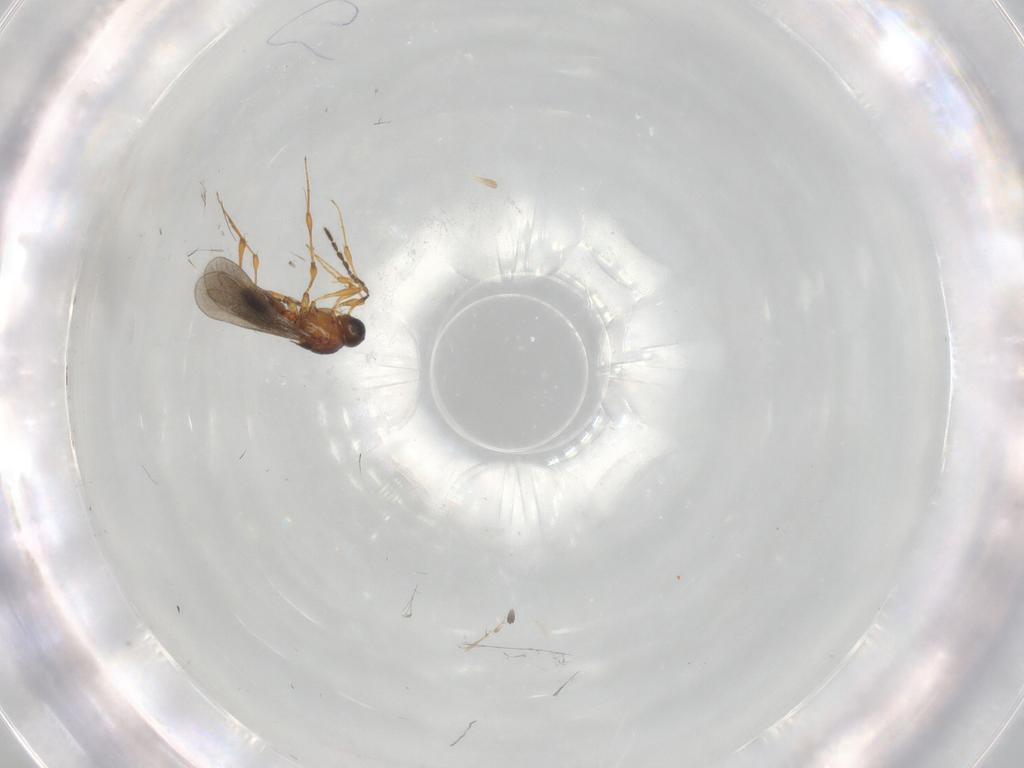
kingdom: Animalia
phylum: Arthropoda
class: Insecta
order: Hymenoptera
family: Platygastridae
